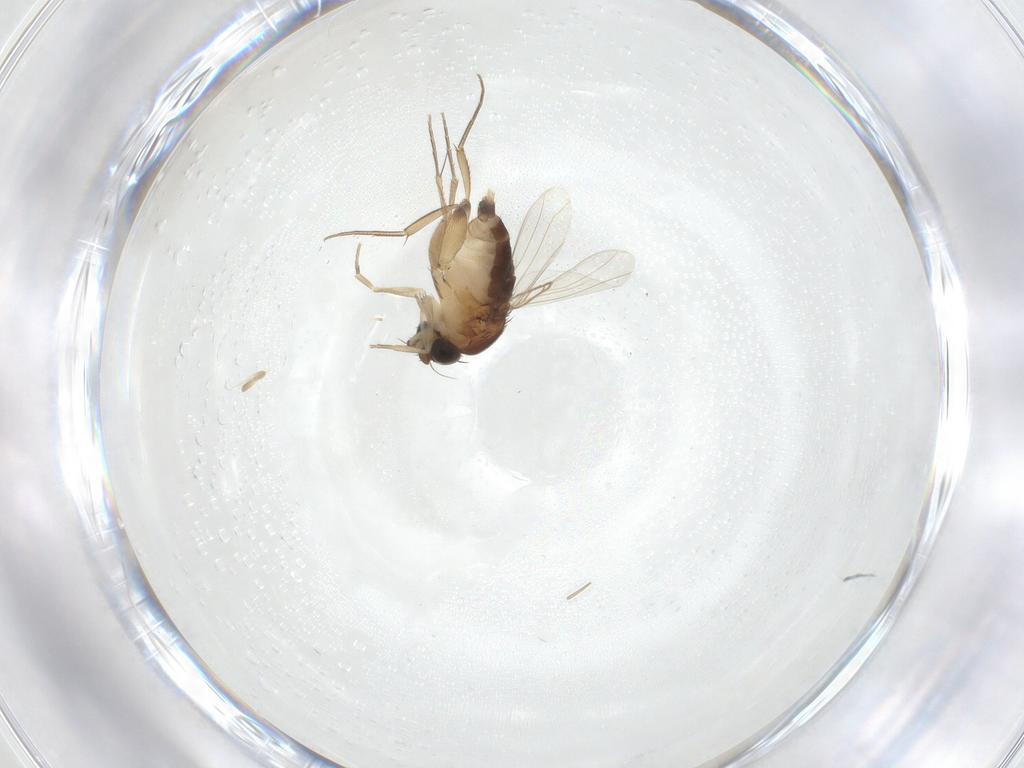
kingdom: Animalia
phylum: Arthropoda
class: Insecta
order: Diptera
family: Phoridae
